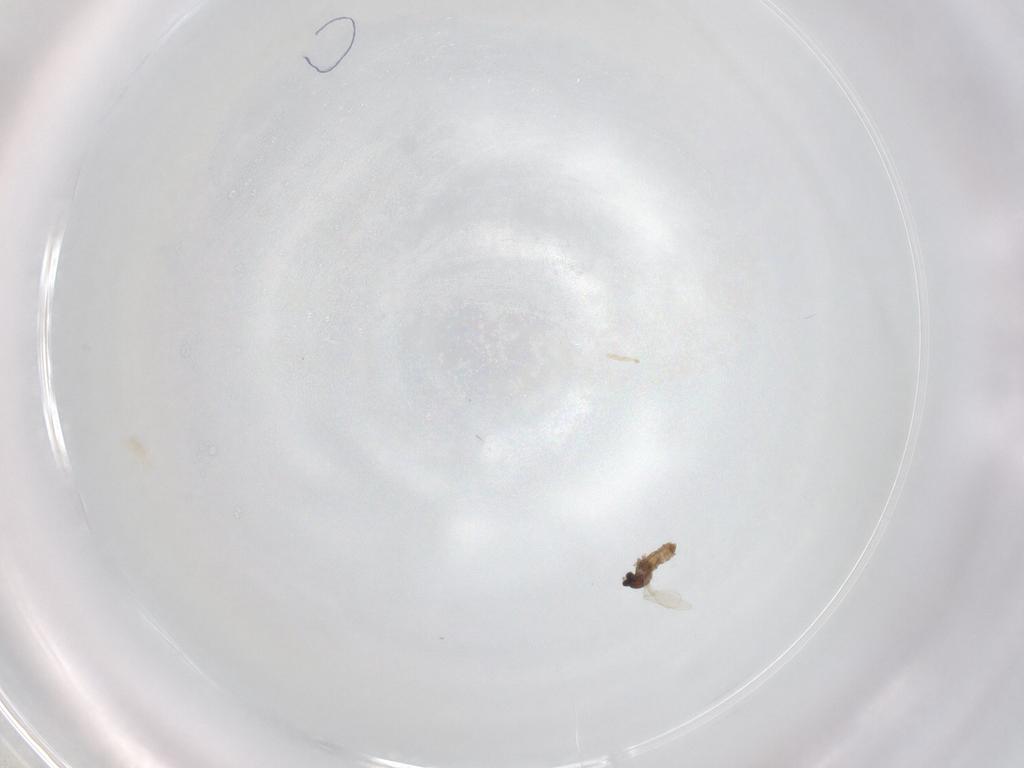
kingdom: Animalia
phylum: Arthropoda
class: Insecta
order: Diptera
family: Cecidomyiidae
